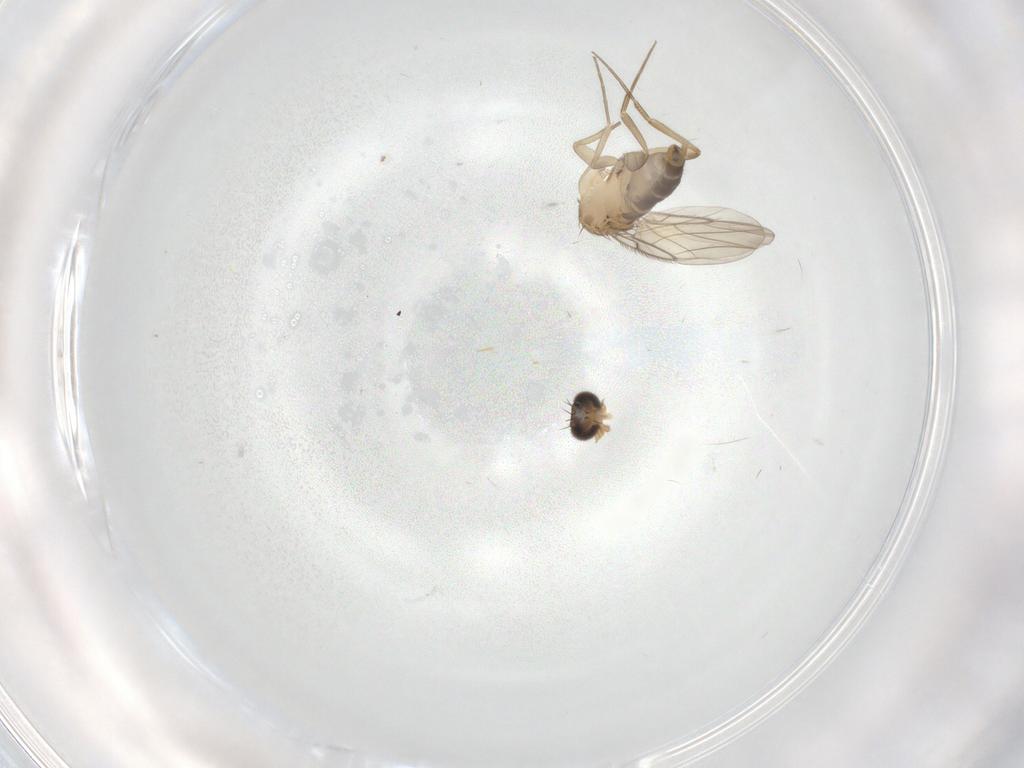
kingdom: Animalia
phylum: Arthropoda
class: Insecta
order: Diptera
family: Phoridae
